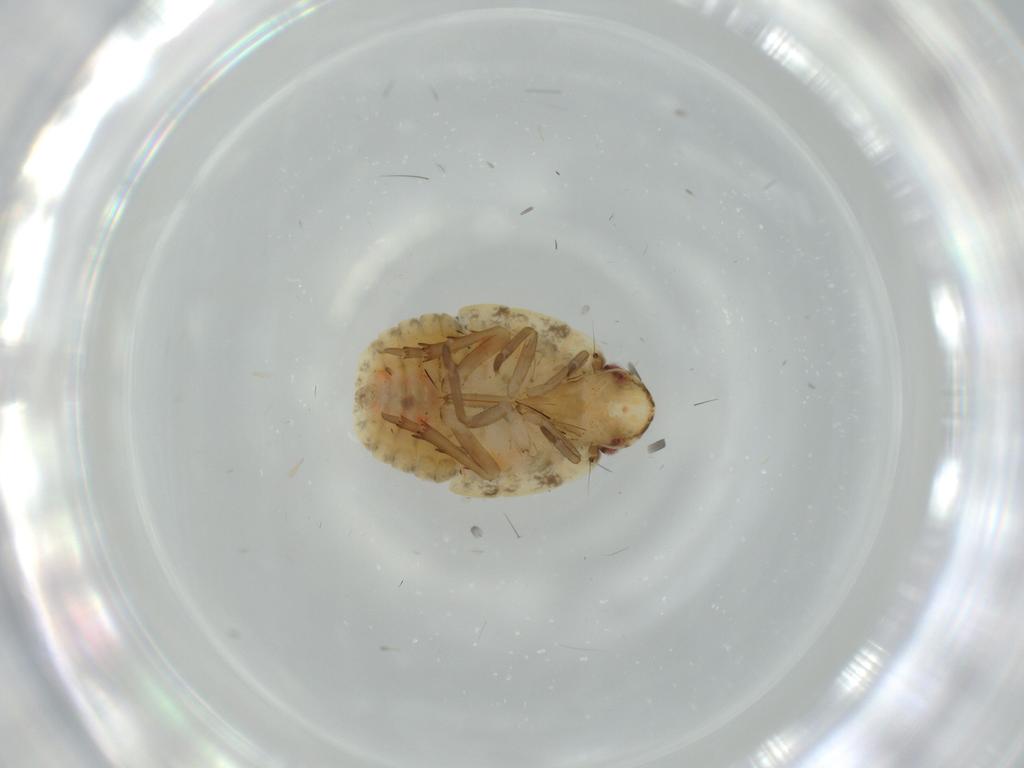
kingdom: Animalia
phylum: Arthropoda
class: Insecta
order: Hemiptera
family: Flatidae
